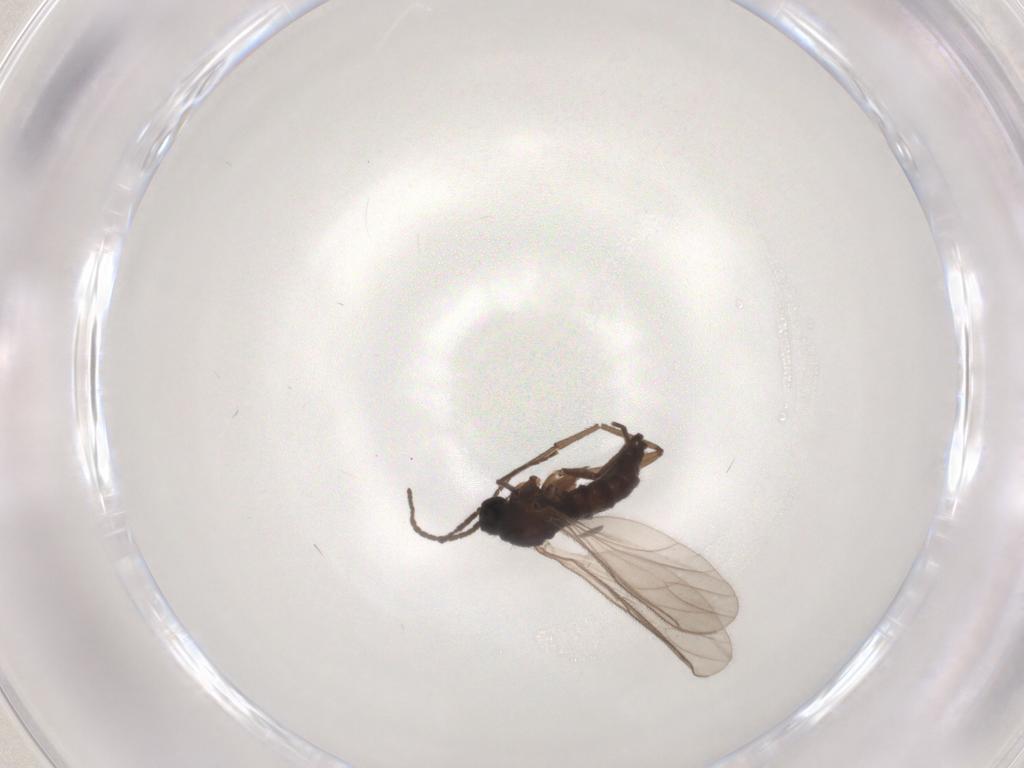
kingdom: Animalia
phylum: Arthropoda
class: Insecta
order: Diptera
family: Sciaridae
